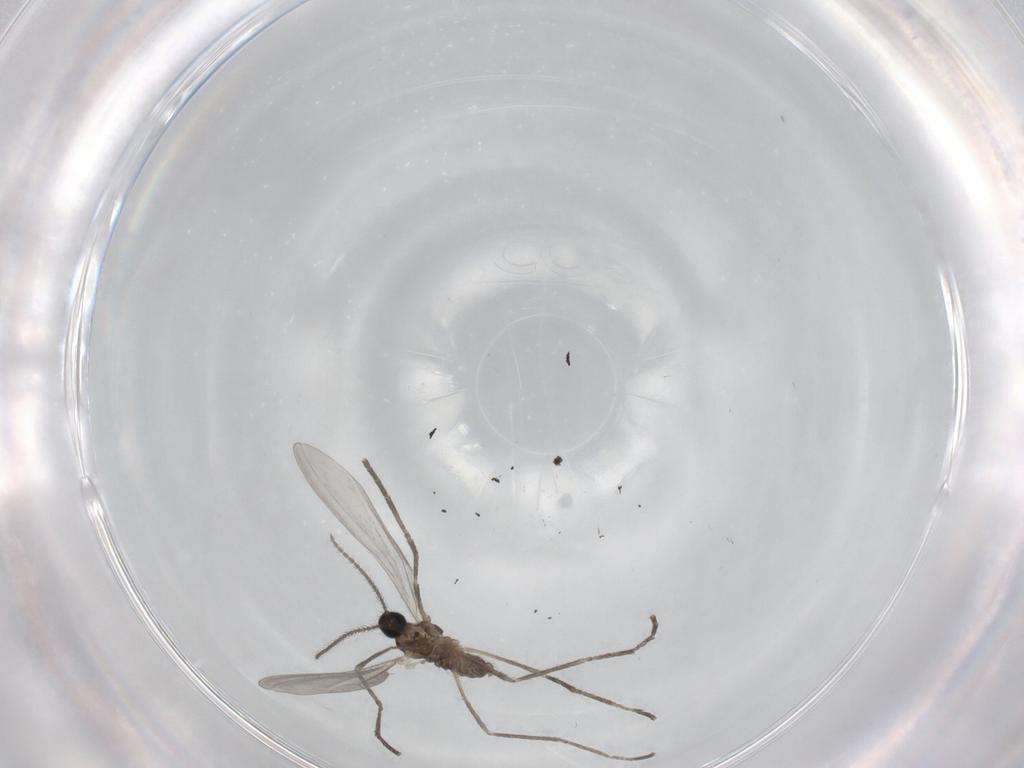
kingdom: Animalia
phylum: Arthropoda
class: Insecta
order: Diptera
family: Cecidomyiidae
